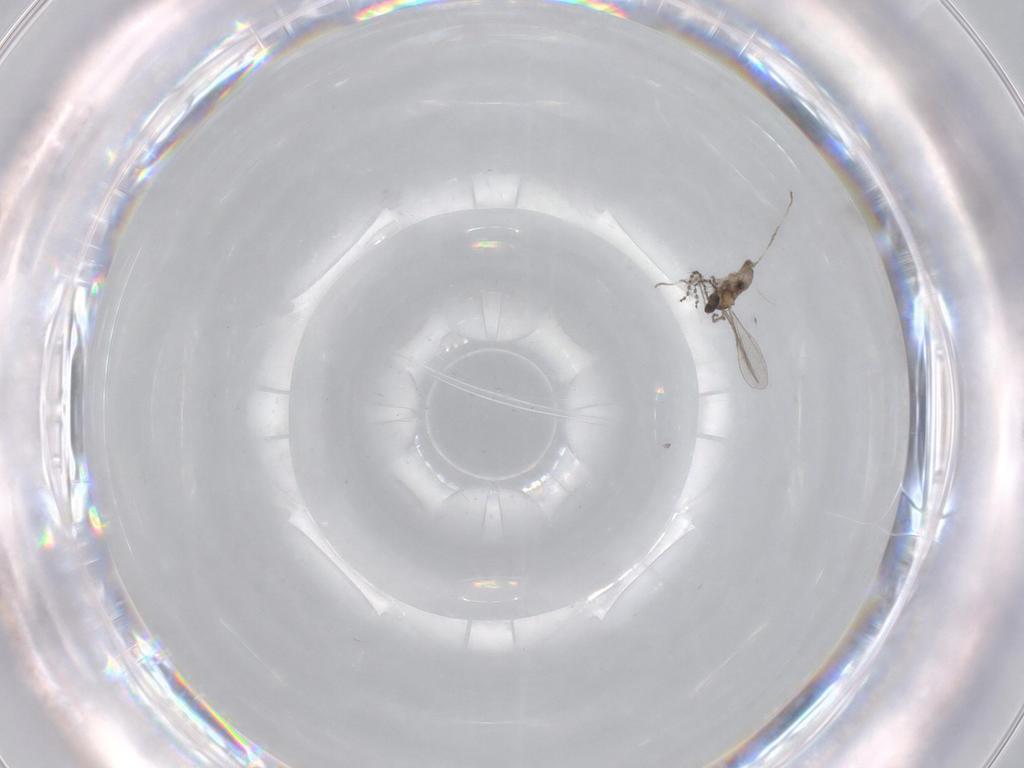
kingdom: Animalia
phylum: Arthropoda
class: Insecta
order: Diptera
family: Cecidomyiidae
